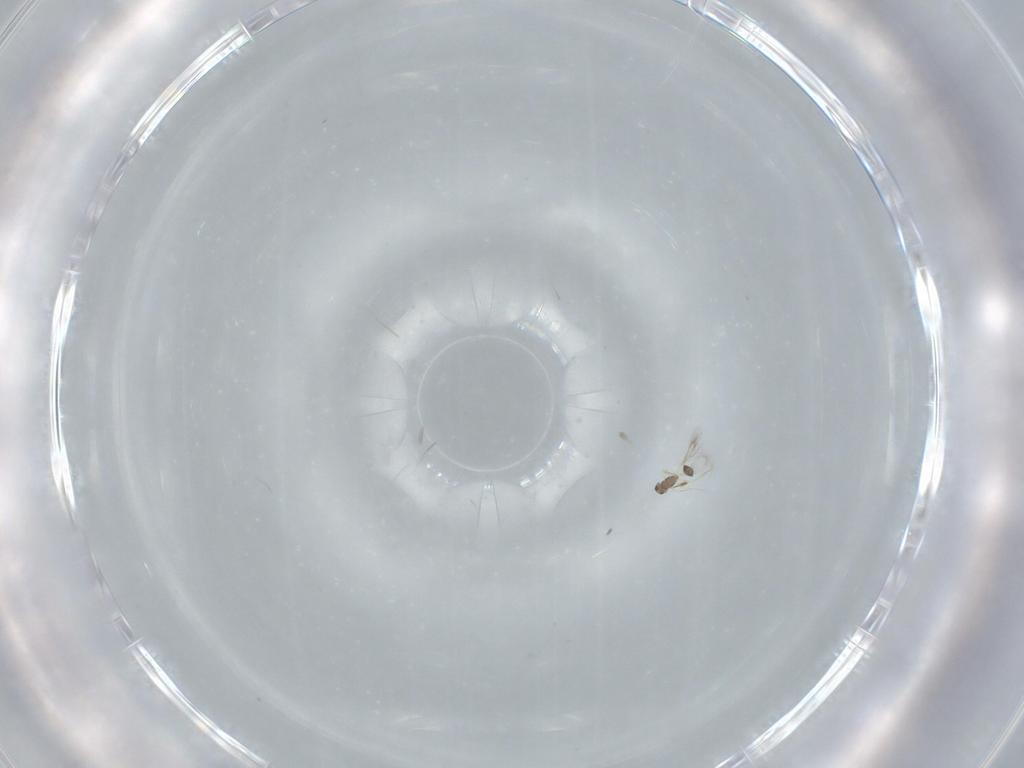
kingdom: Animalia
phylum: Arthropoda
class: Insecta
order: Hymenoptera
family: Mymarommatidae
